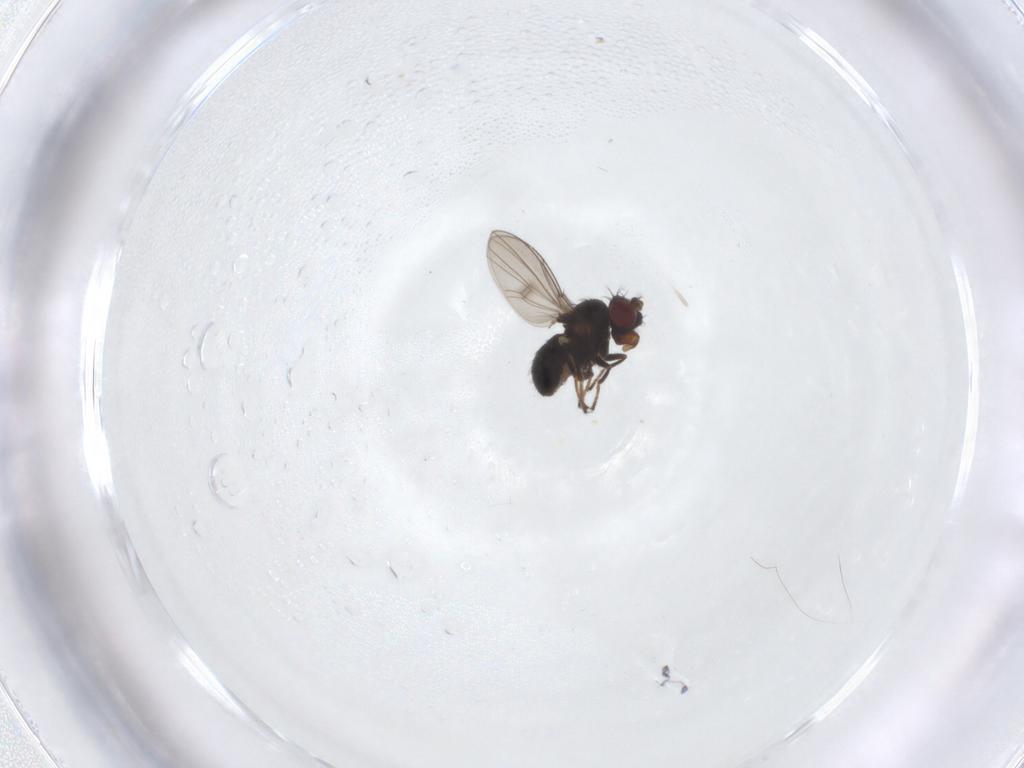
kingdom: Animalia
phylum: Arthropoda
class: Insecta
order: Diptera
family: Ephydridae
